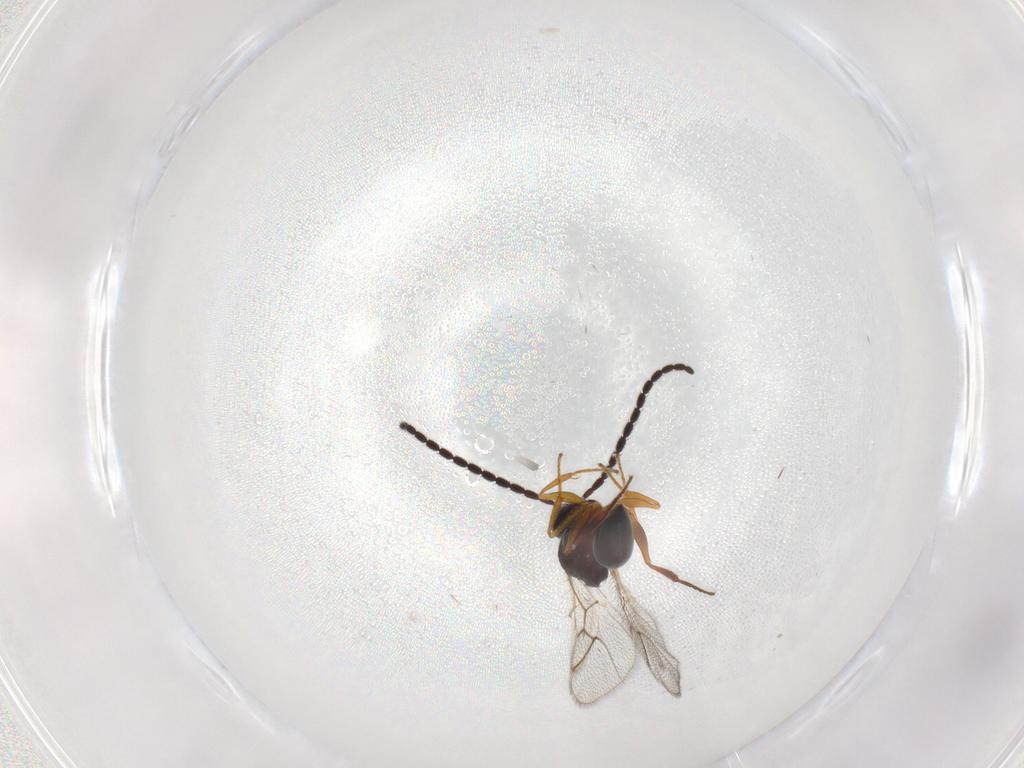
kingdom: Animalia
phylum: Arthropoda
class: Insecta
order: Hymenoptera
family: Figitidae
